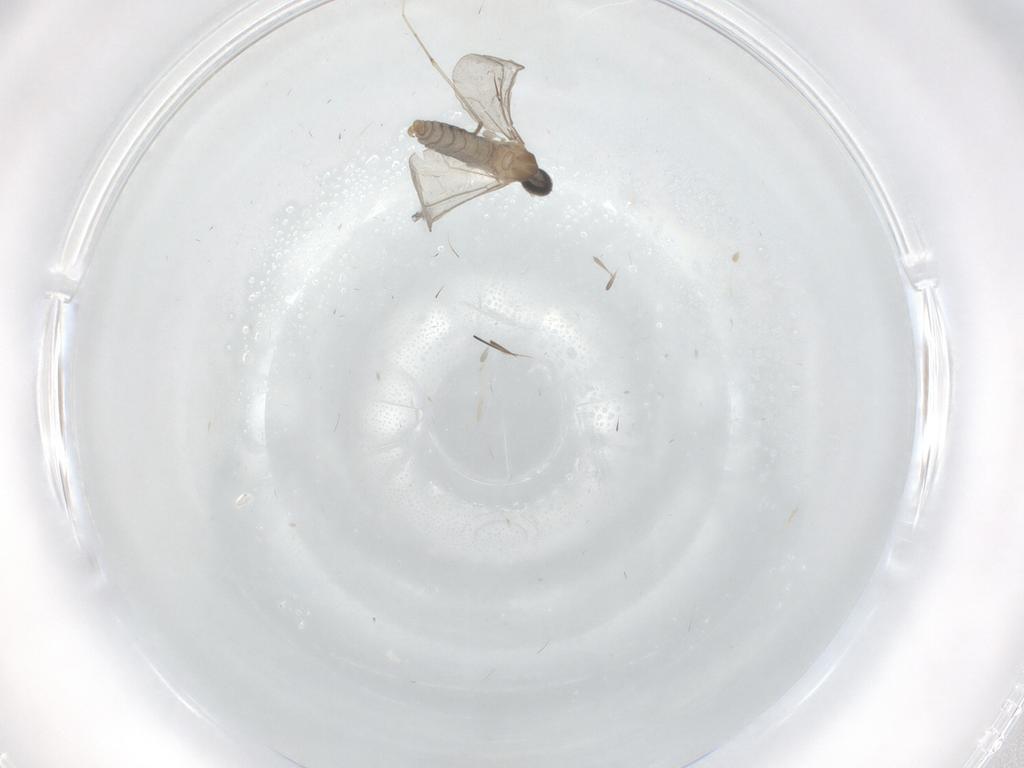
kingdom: Animalia
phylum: Arthropoda
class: Insecta
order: Diptera
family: Cecidomyiidae
